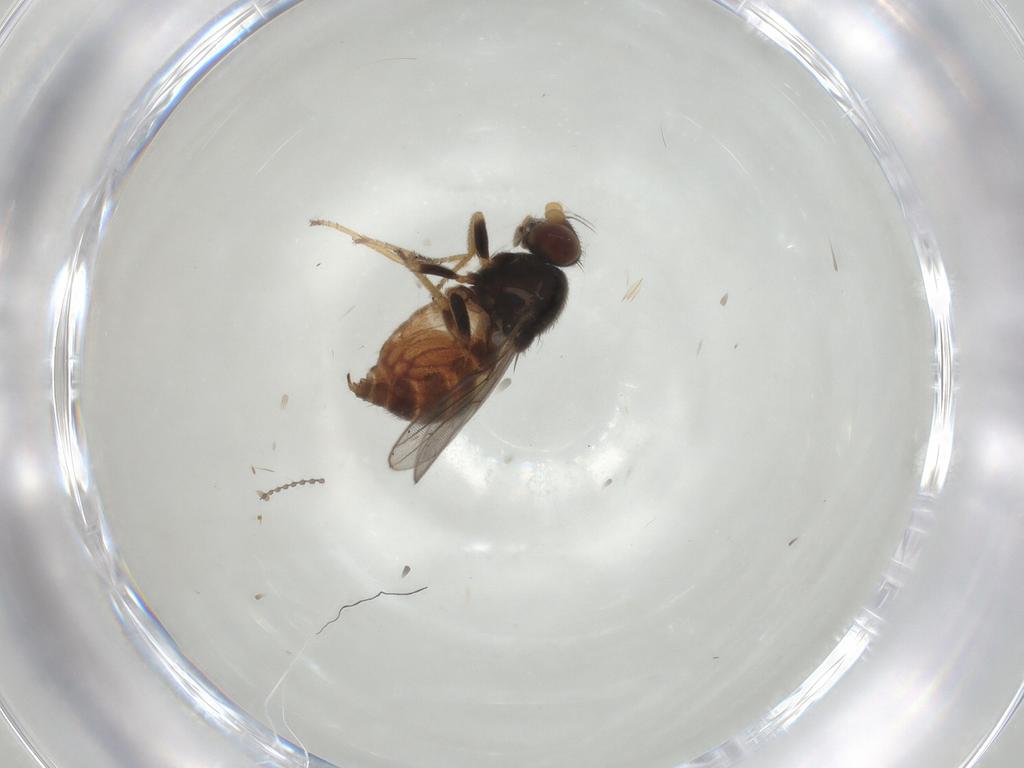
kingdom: Animalia
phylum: Arthropoda
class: Insecta
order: Diptera
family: Chloropidae
